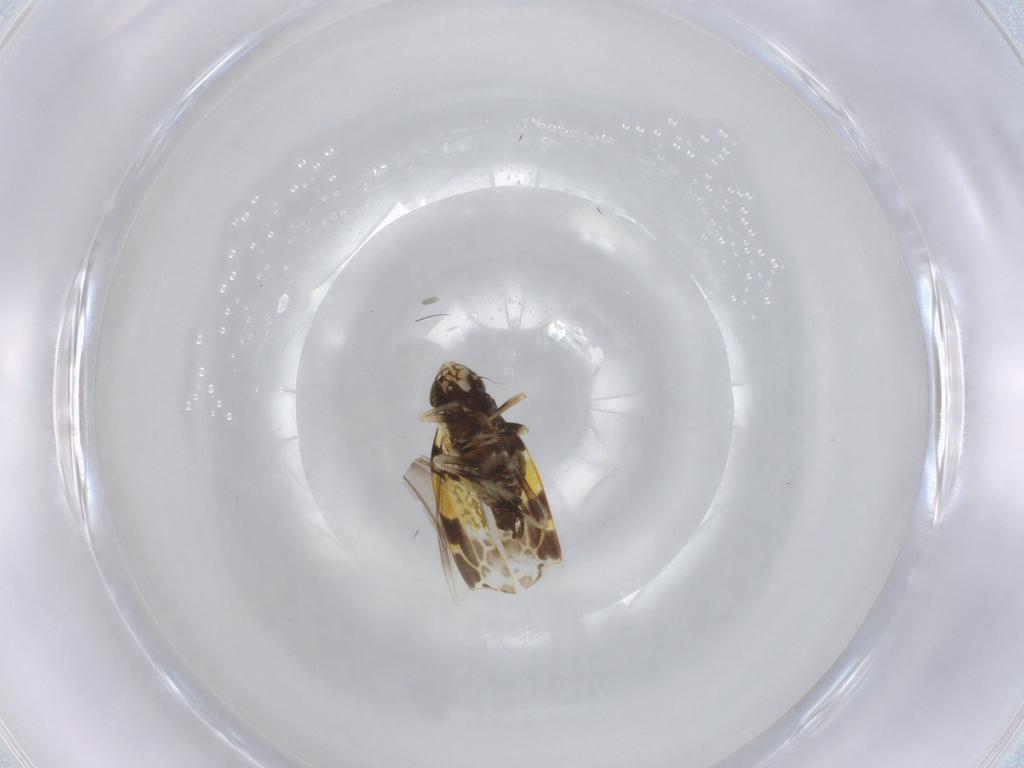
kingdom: Animalia
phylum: Arthropoda
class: Insecta
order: Hemiptera
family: Cicadellidae
